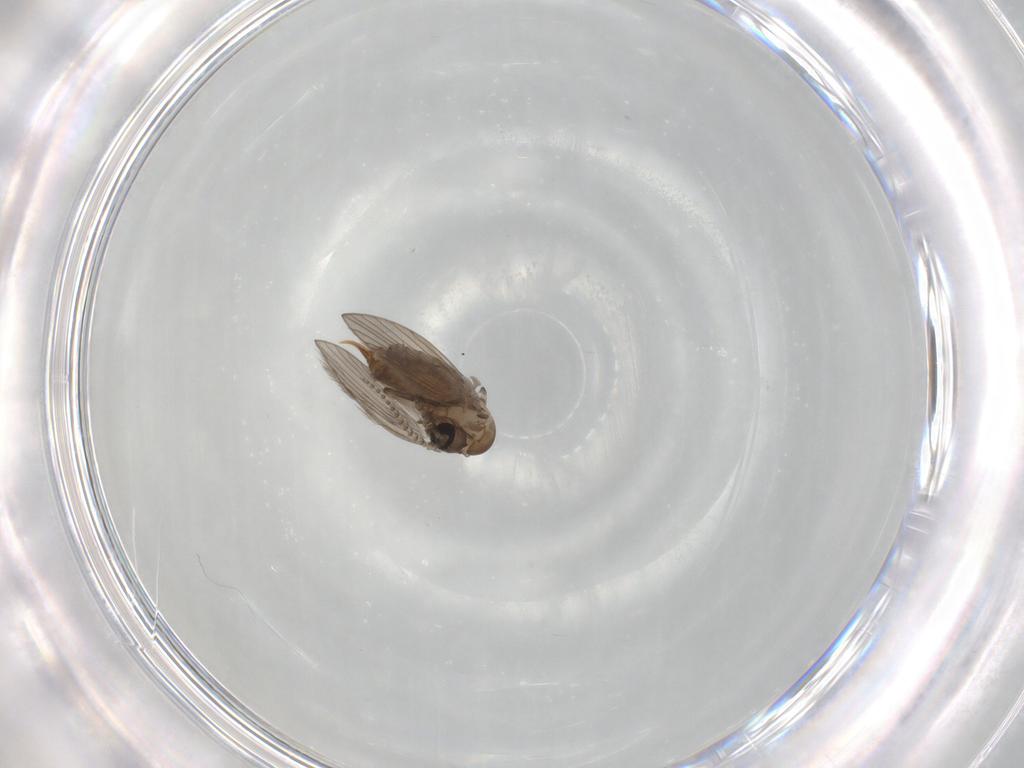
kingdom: Animalia
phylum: Arthropoda
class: Insecta
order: Diptera
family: Psychodidae
